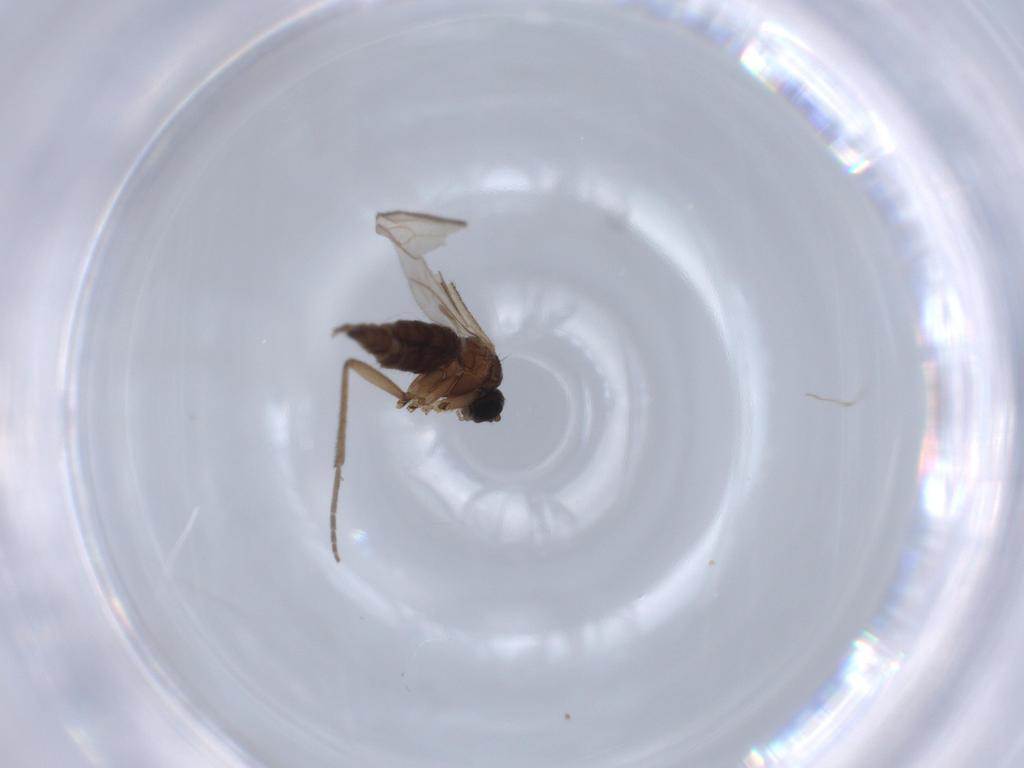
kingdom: Animalia
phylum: Arthropoda
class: Insecta
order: Diptera
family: Sciaridae
